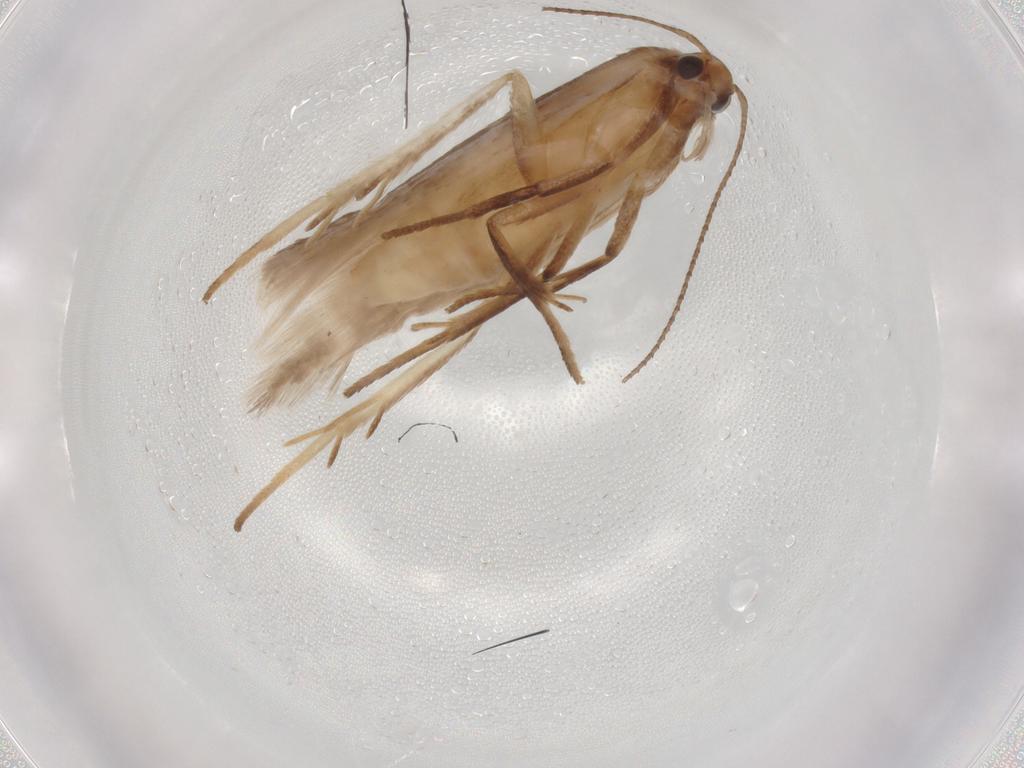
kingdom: Animalia
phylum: Arthropoda
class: Insecta
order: Lepidoptera
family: Gelechiidae
